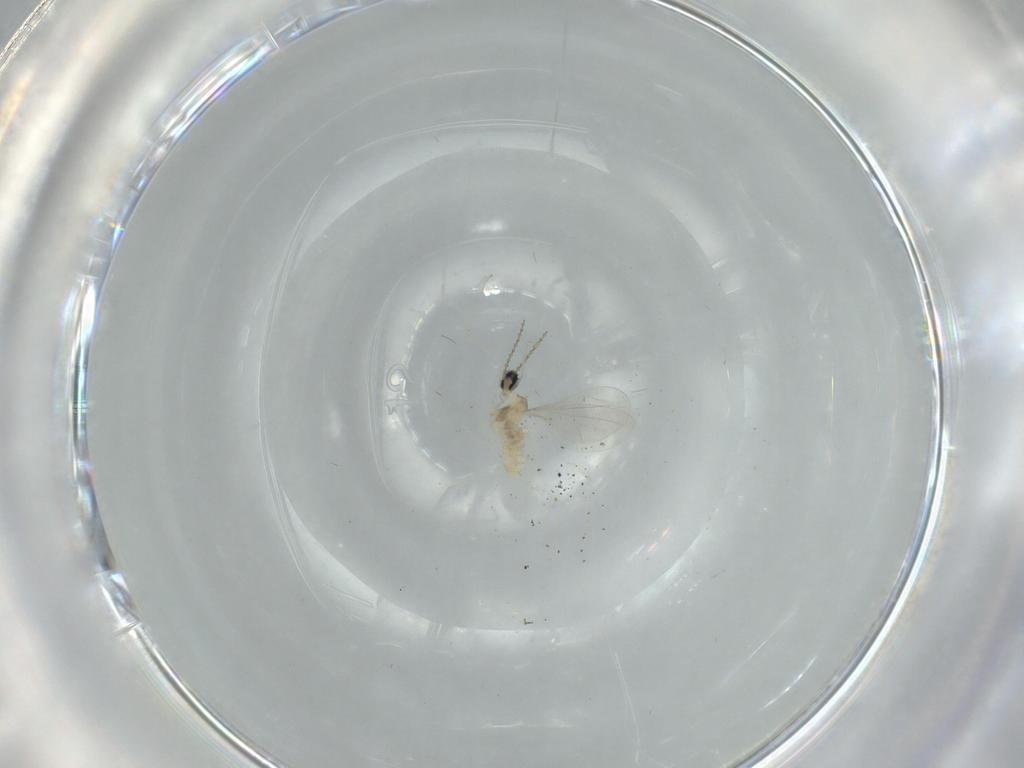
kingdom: Animalia
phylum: Arthropoda
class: Insecta
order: Diptera
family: Cecidomyiidae
